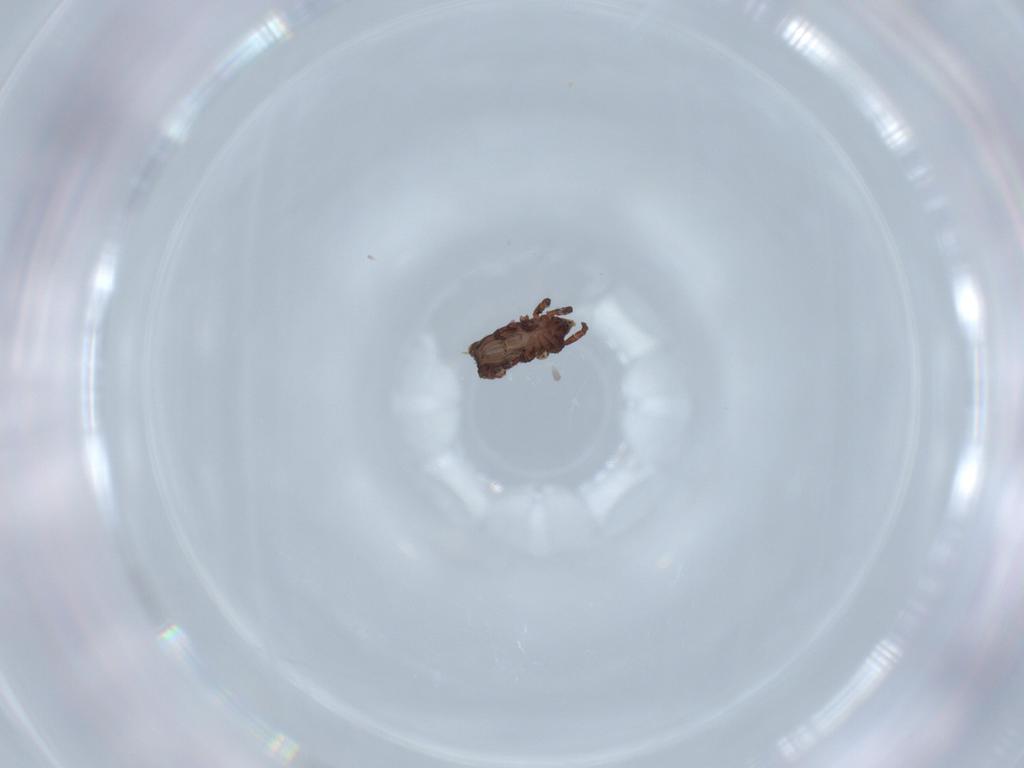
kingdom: Animalia
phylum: Arthropoda
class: Arachnida
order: Sarcoptiformes
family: Crotoniidae
